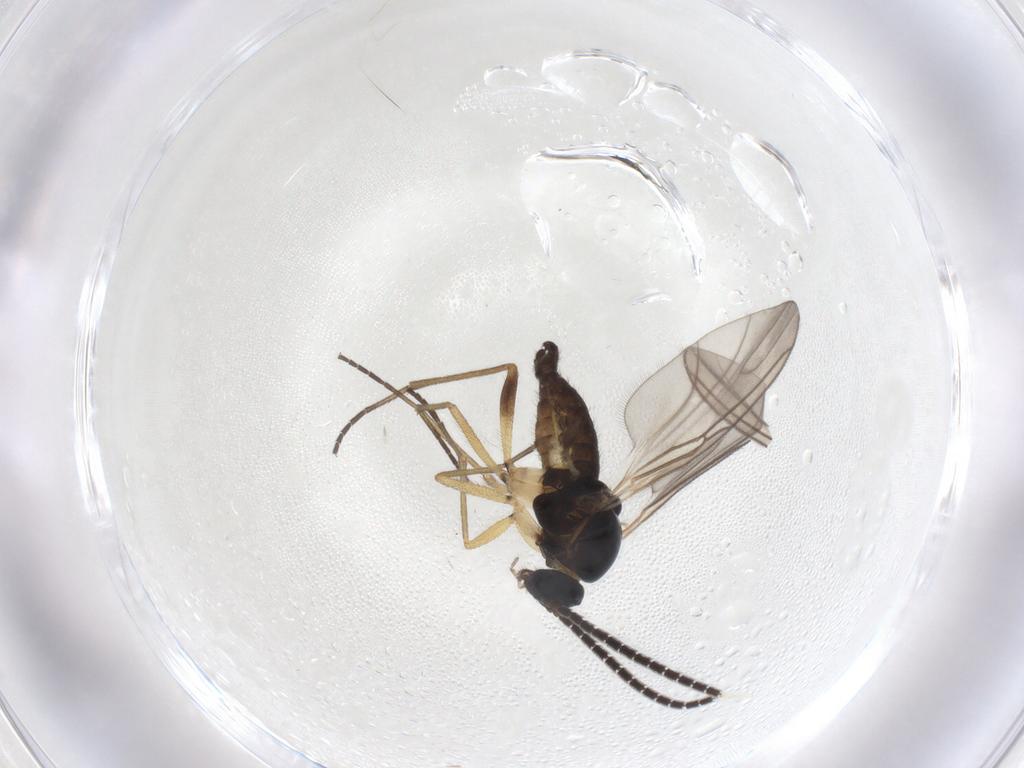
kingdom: Animalia
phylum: Arthropoda
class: Insecta
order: Diptera
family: Sciaridae
